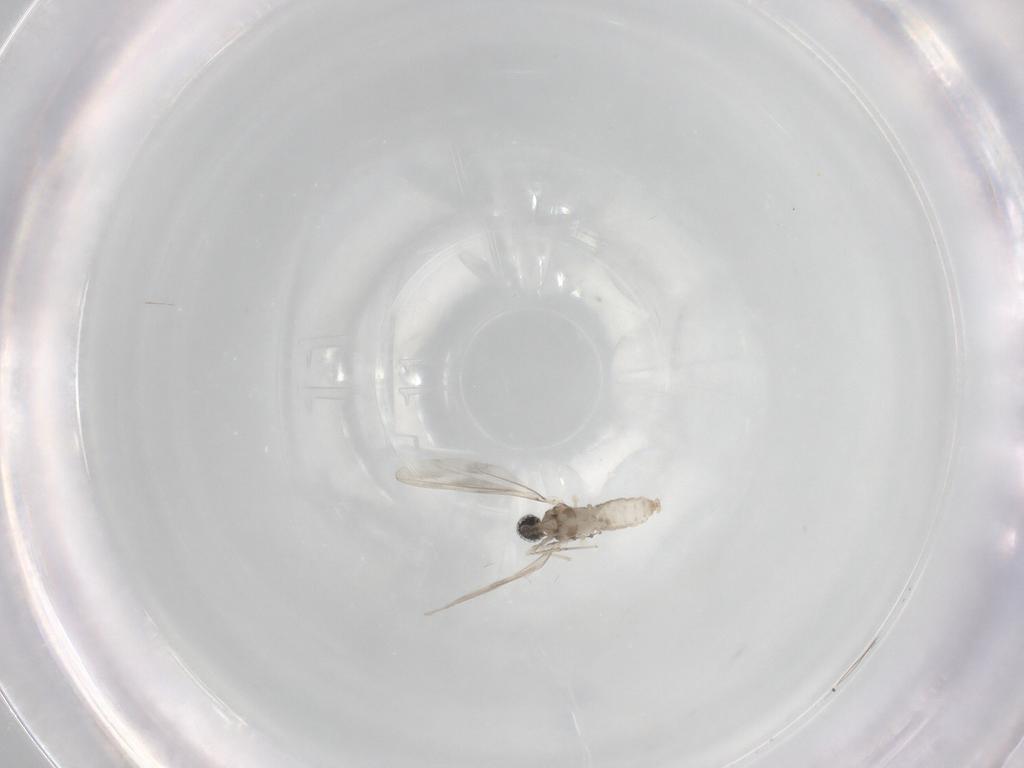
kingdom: Animalia
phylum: Arthropoda
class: Insecta
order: Diptera
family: Cecidomyiidae
